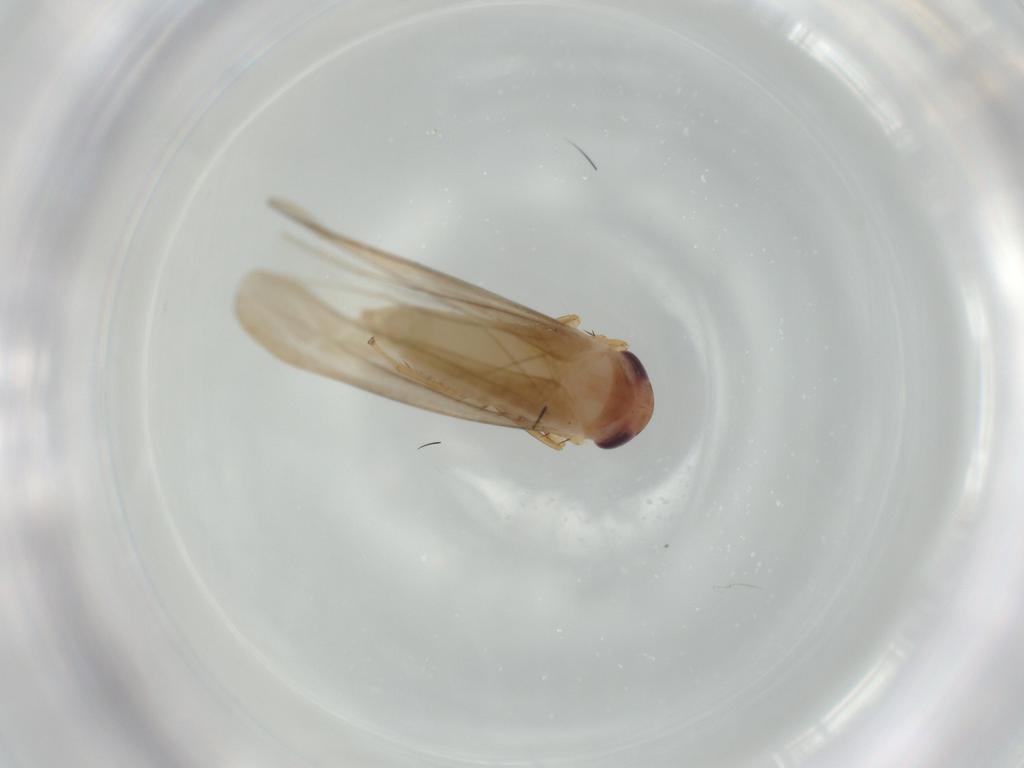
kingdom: Animalia
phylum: Arthropoda
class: Insecta
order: Hemiptera
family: Cicadellidae
